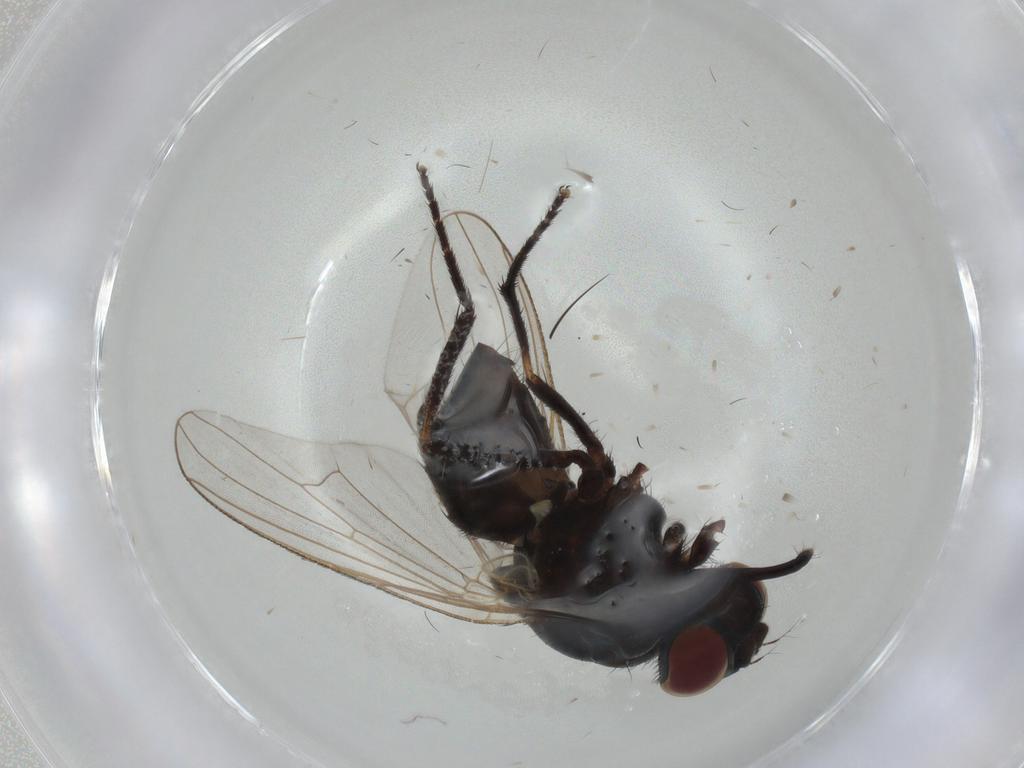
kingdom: Animalia
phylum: Arthropoda
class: Insecta
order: Diptera
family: Muscidae
